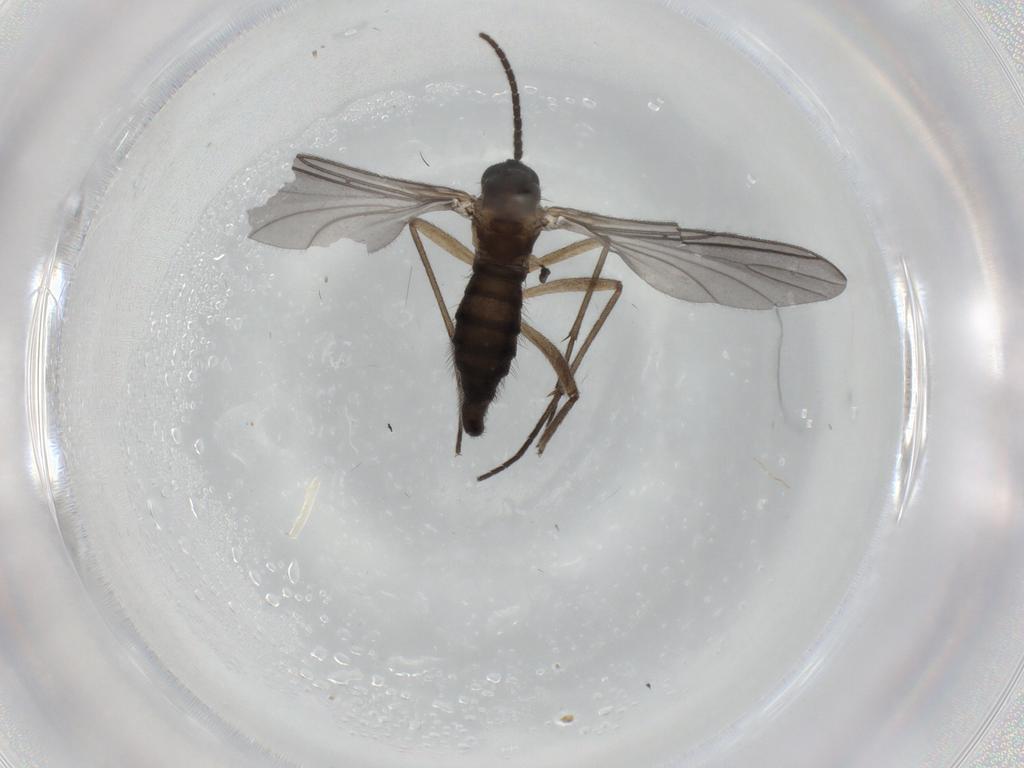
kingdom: Animalia
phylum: Arthropoda
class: Insecta
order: Diptera
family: Sciaridae
